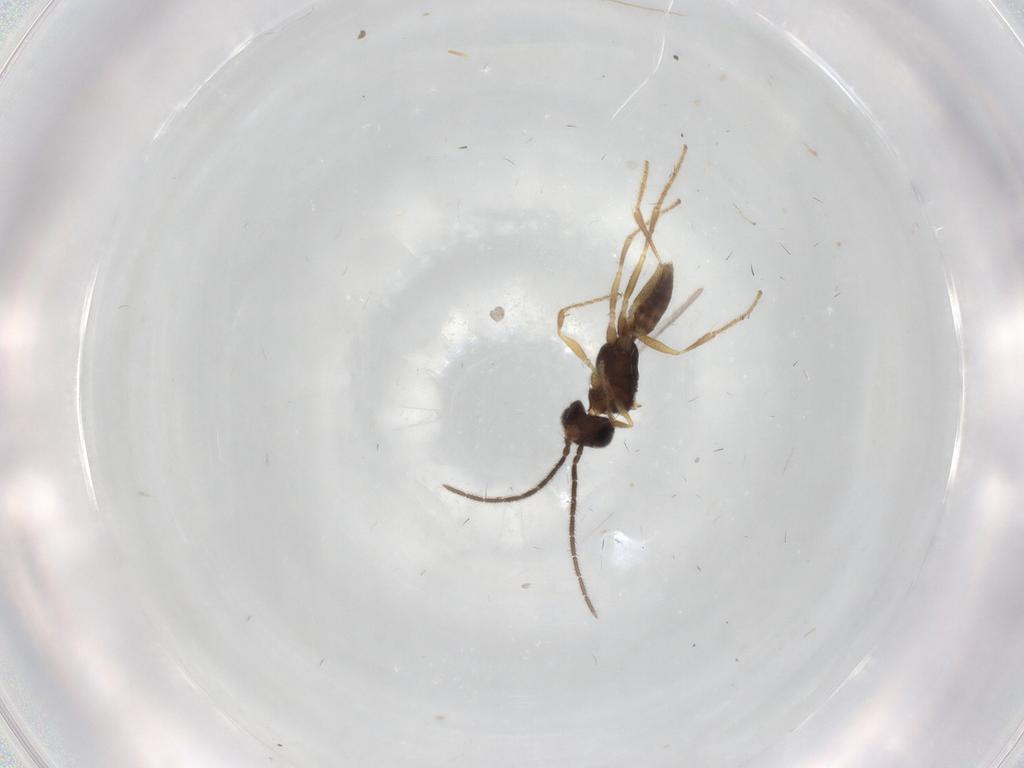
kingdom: Animalia
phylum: Arthropoda
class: Insecta
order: Hymenoptera
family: Dryinidae
